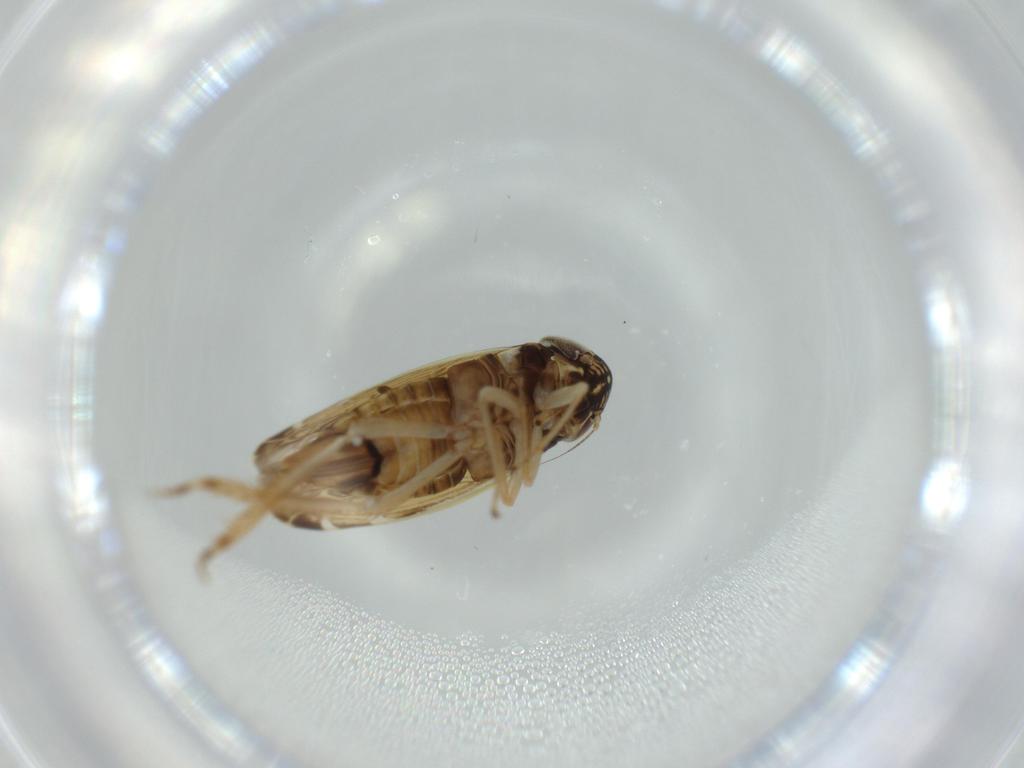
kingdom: Animalia
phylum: Arthropoda
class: Insecta
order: Hemiptera
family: Cicadellidae
